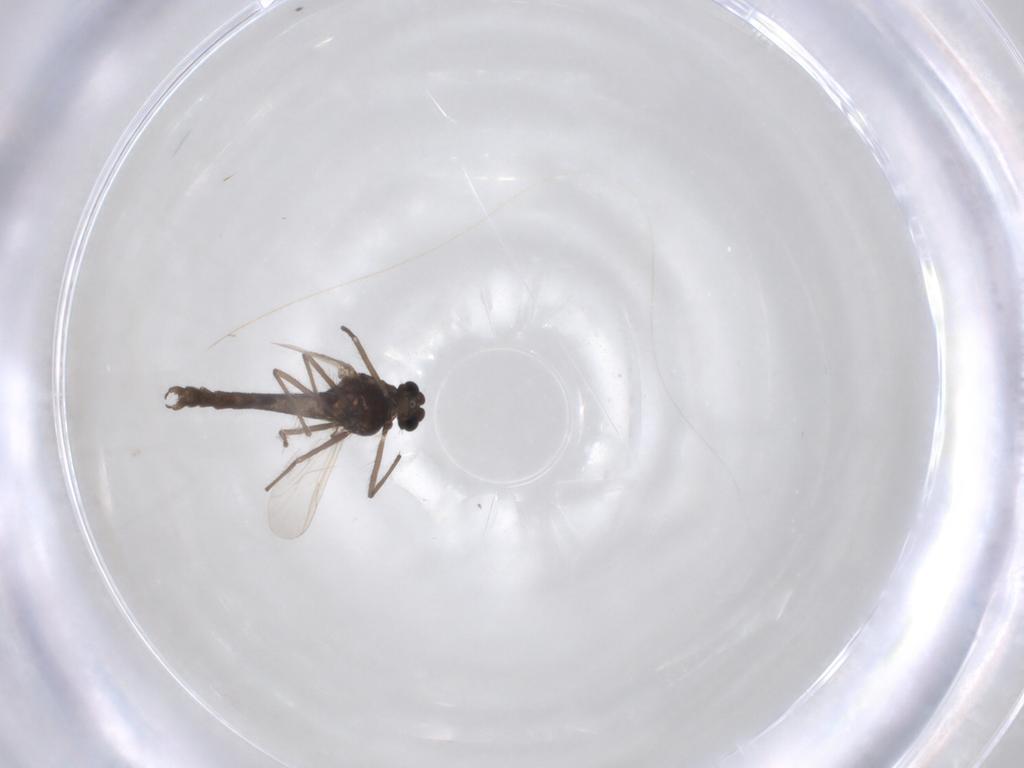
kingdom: Animalia
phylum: Arthropoda
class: Insecta
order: Diptera
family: Chironomidae
